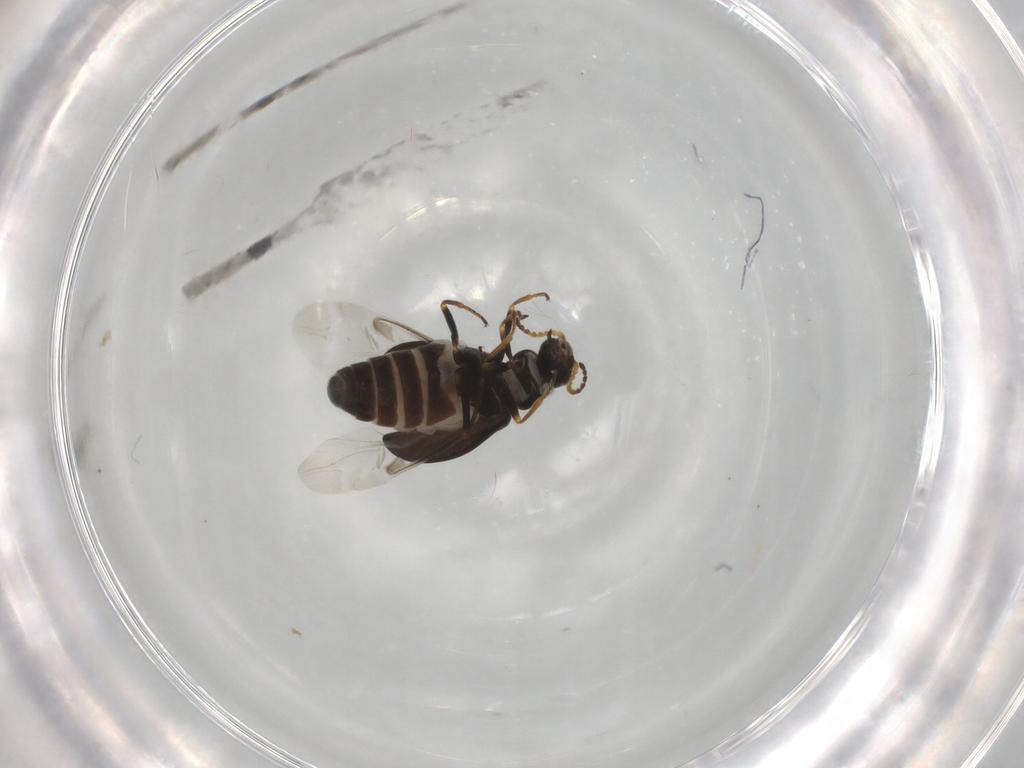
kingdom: Animalia
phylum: Arthropoda
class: Insecta
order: Coleoptera
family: Melyridae
